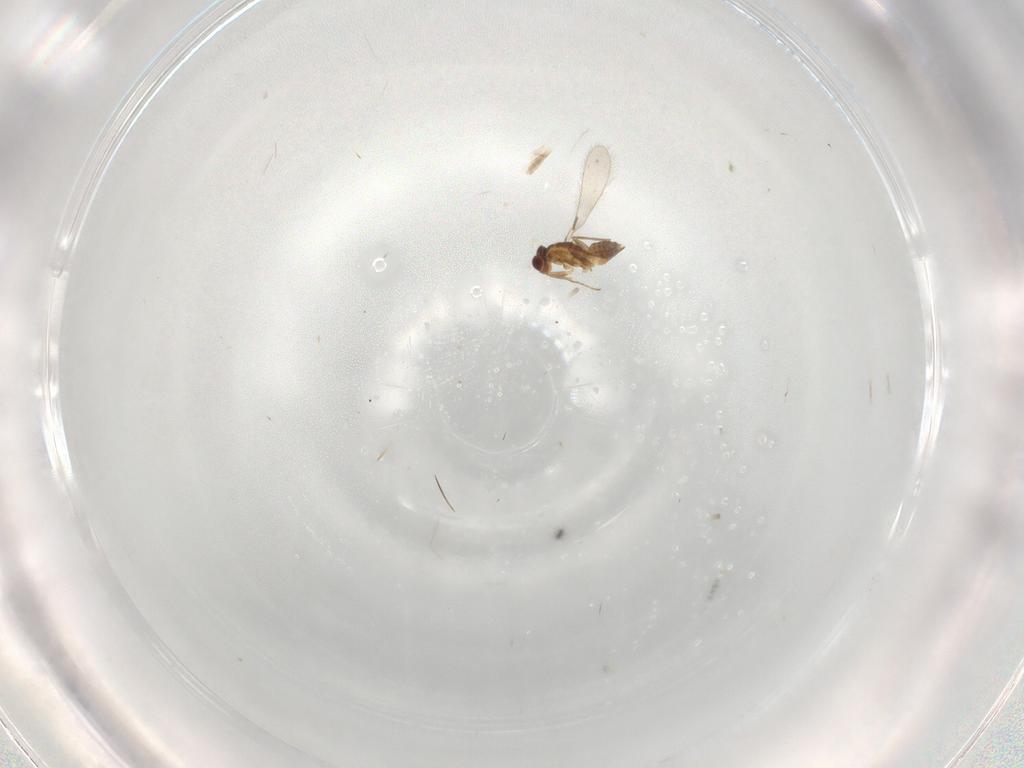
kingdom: Animalia
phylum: Arthropoda
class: Insecta
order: Hymenoptera
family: Mymaridae
